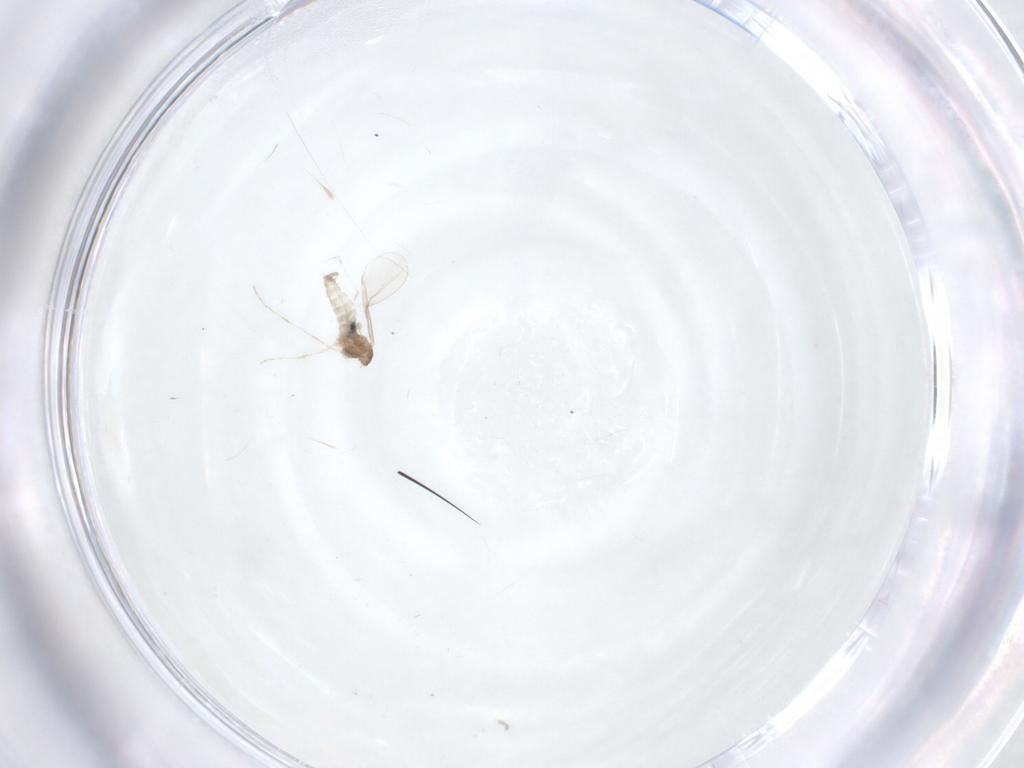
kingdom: Animalia
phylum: Arthropoda
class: Insecta
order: Diptera
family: Cecidomyiidae
